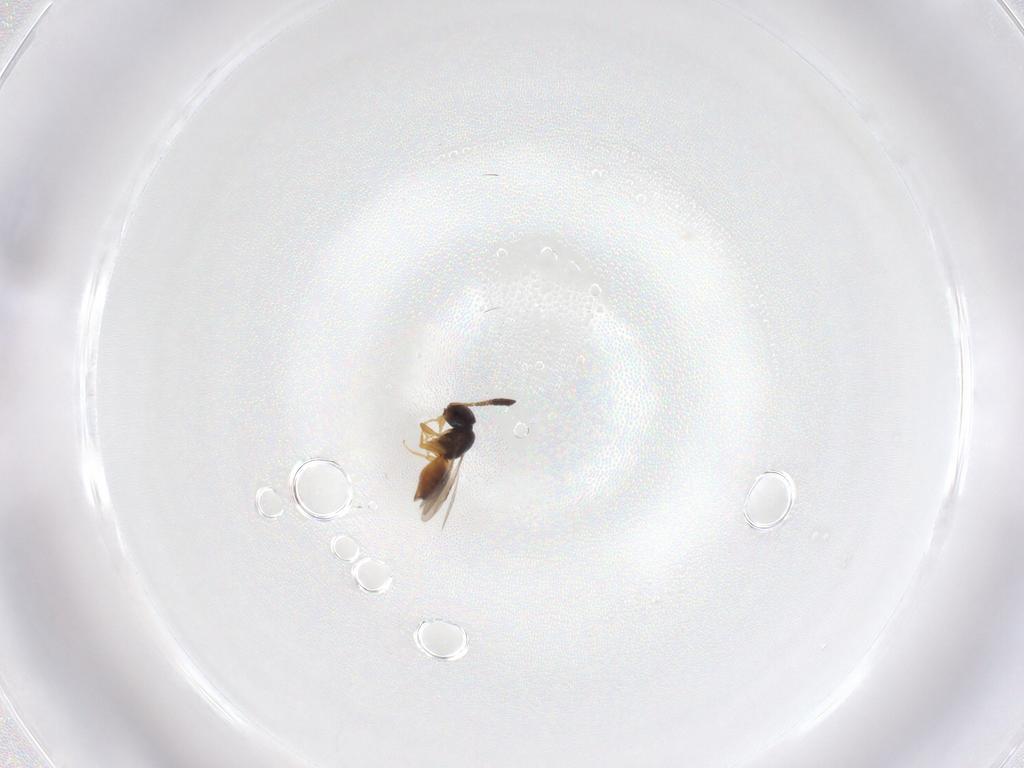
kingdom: Animalia
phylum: Arthropoda
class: Insecta
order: Hymenoptera
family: Ceraphronidae
